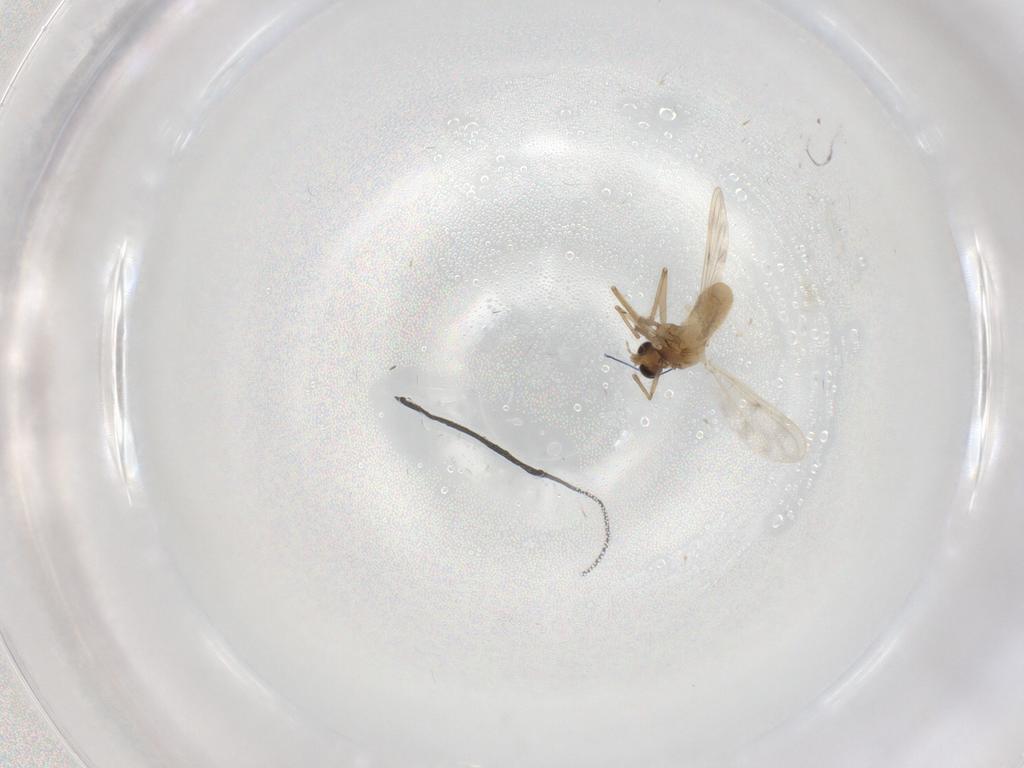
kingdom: Animalia
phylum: Arthropoda
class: Insecta
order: Diptera
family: Chironomidae
